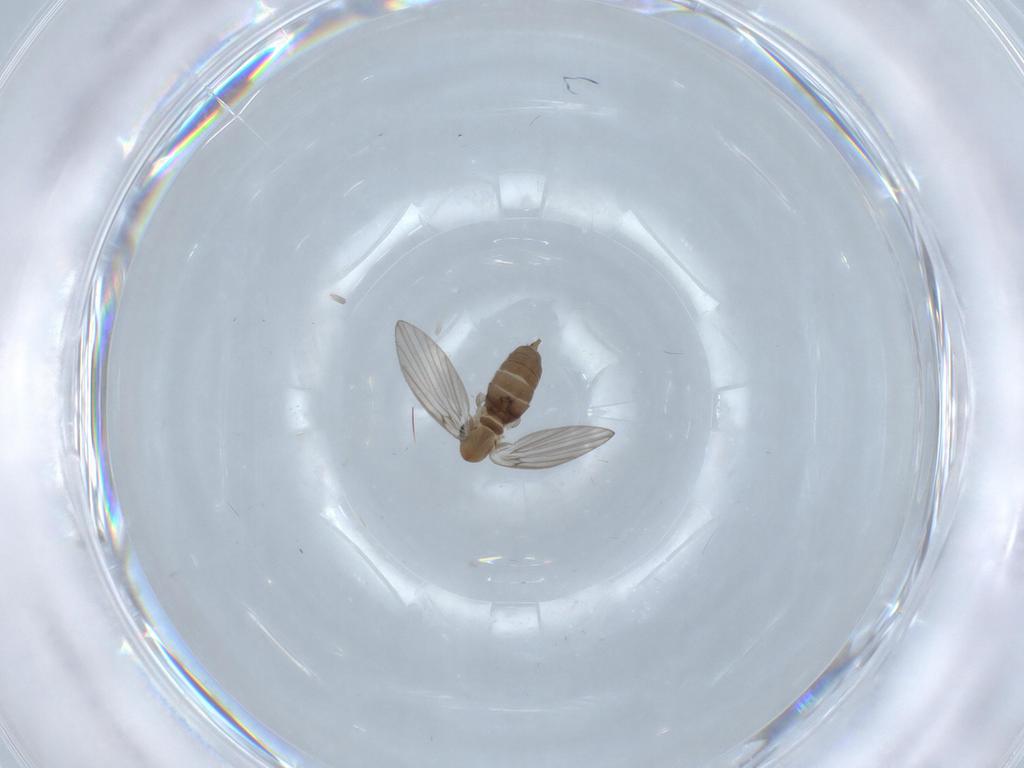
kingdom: Animalia
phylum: Arthropoda
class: Insecta
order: Diptera
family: Psychodidae
